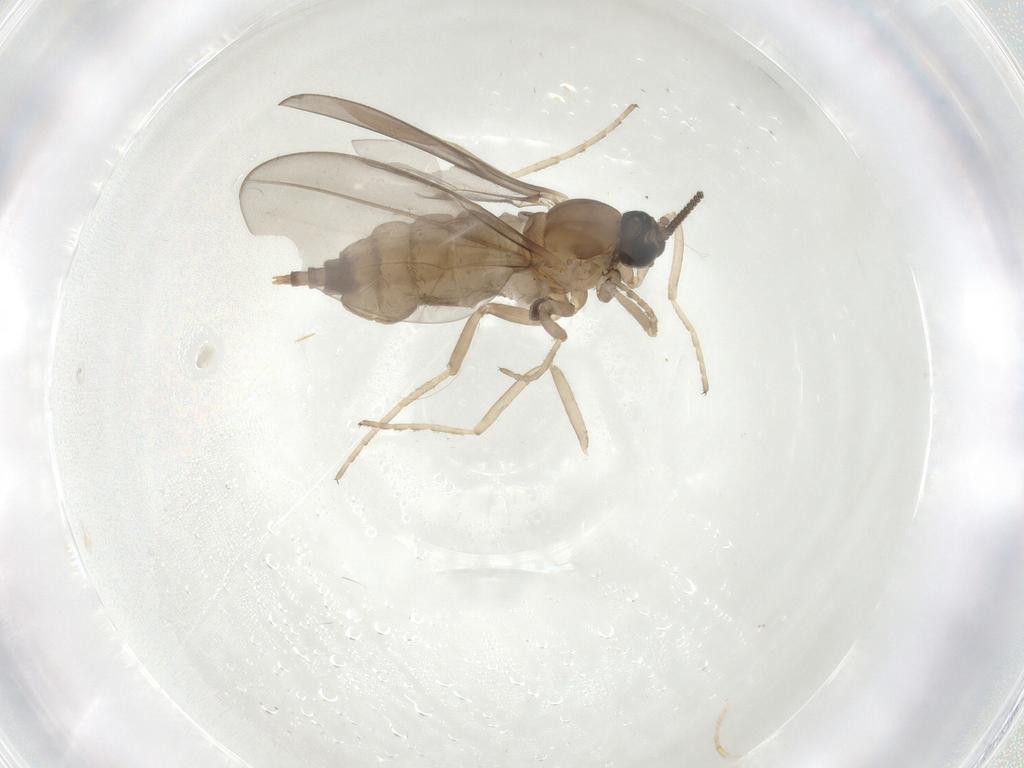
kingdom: Animalia
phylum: Arthropoda
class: Insecta
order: Diptera
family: Cecidomyiidae
